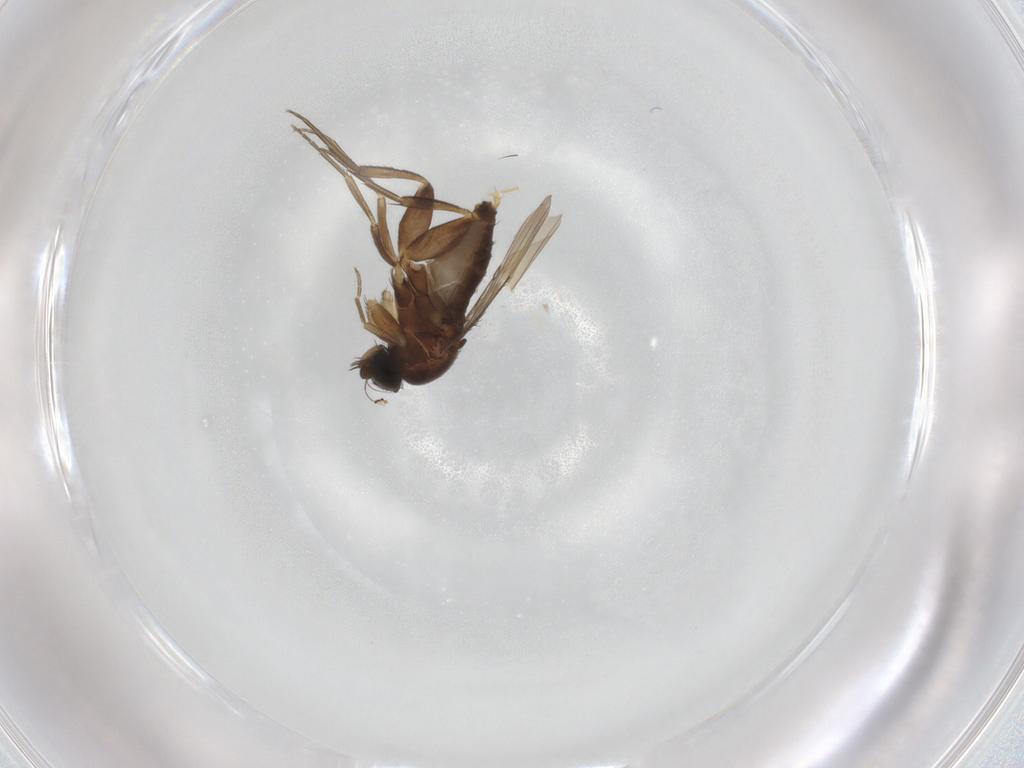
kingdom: Animalia
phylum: Arthropoda
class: Insecta
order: Diptera
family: Phoridae
